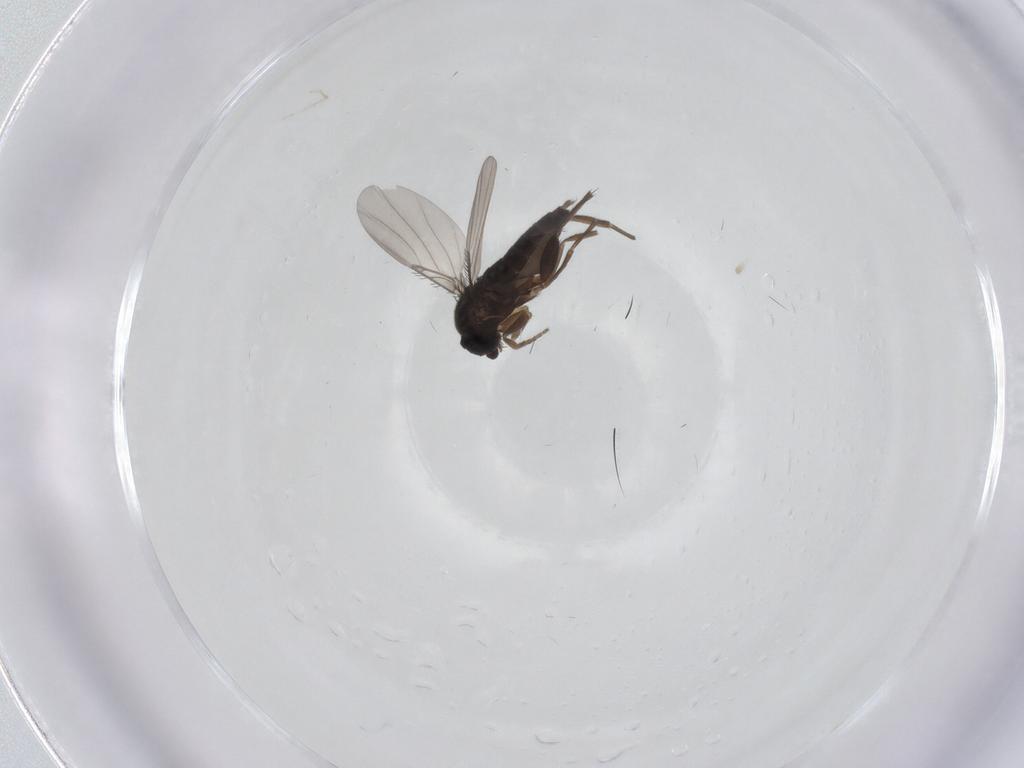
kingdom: Animalia
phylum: Arthropoda
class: Insecta
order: Diptera
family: Phoridae
